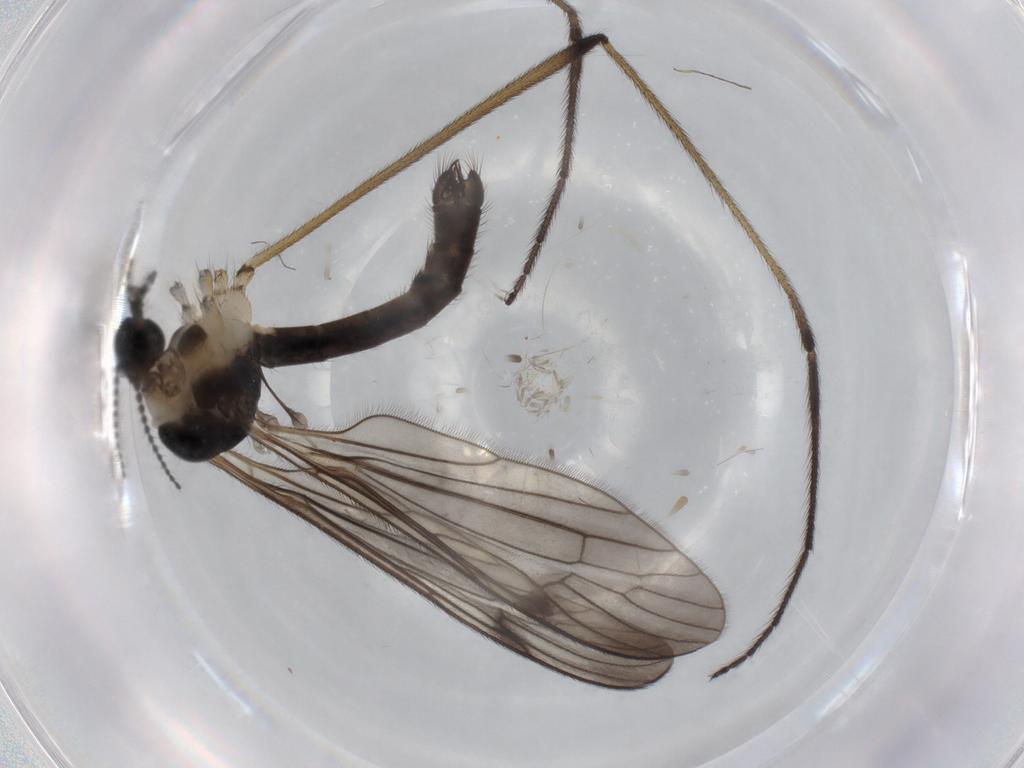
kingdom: Animalia
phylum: Arthropoda
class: Insecta
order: Diptera
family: Limoniidae
